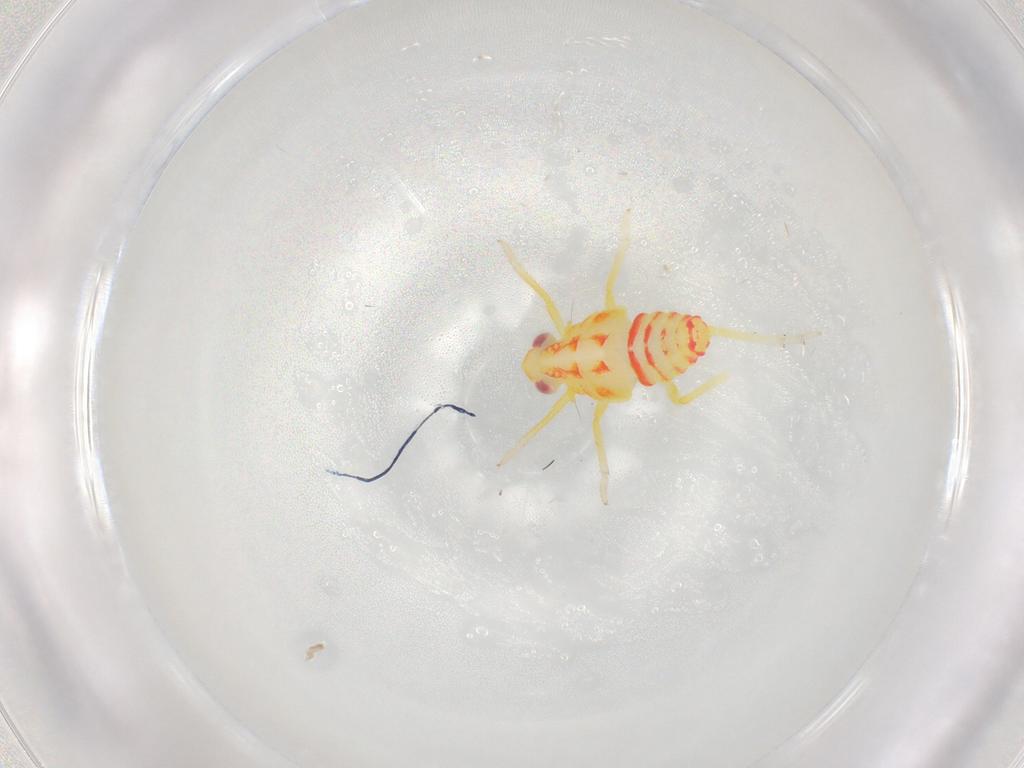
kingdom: Animalia
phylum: Arthropoda
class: Insecta
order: Hemiptera
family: Tropiduchidae
